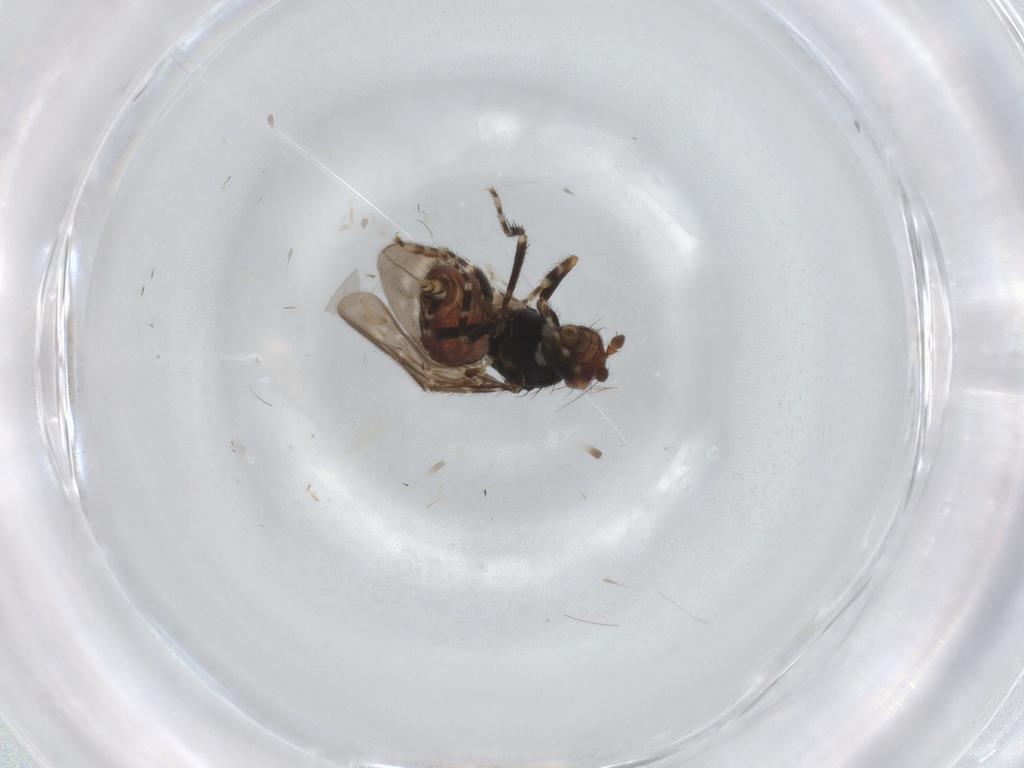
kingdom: Animalia
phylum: Arthropoda
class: Insecta
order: Diptera
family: Sphaeroceridae
